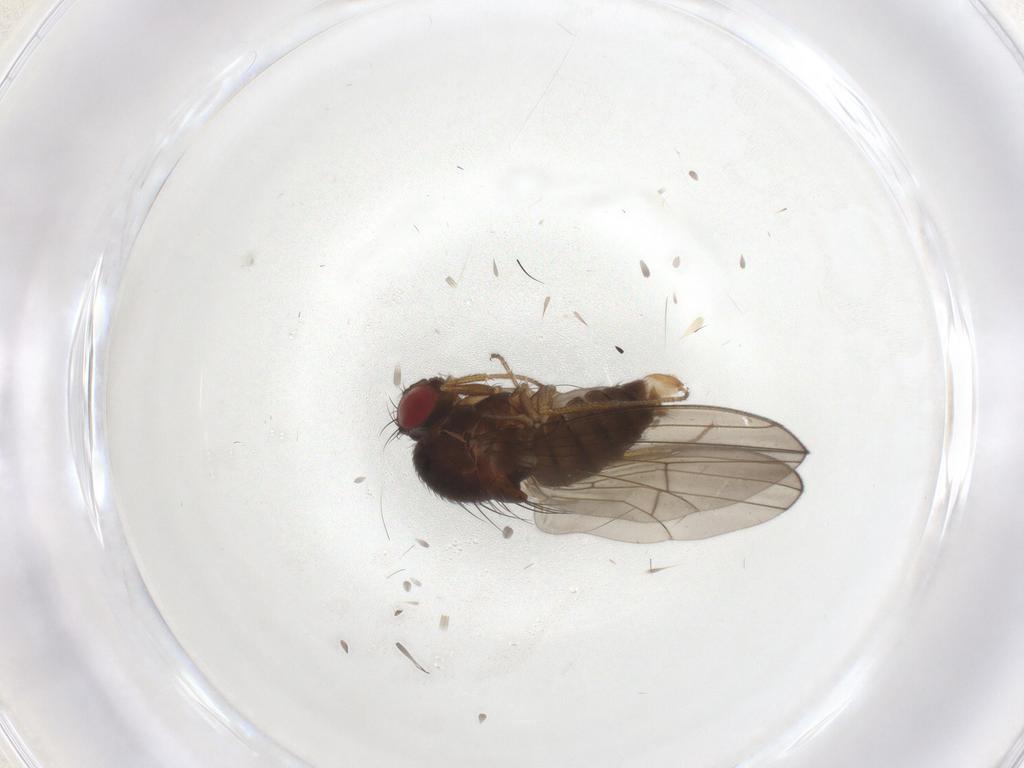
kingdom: Animalia
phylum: Arthropoda
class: Insecta
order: Diptera
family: Drosophilidae
